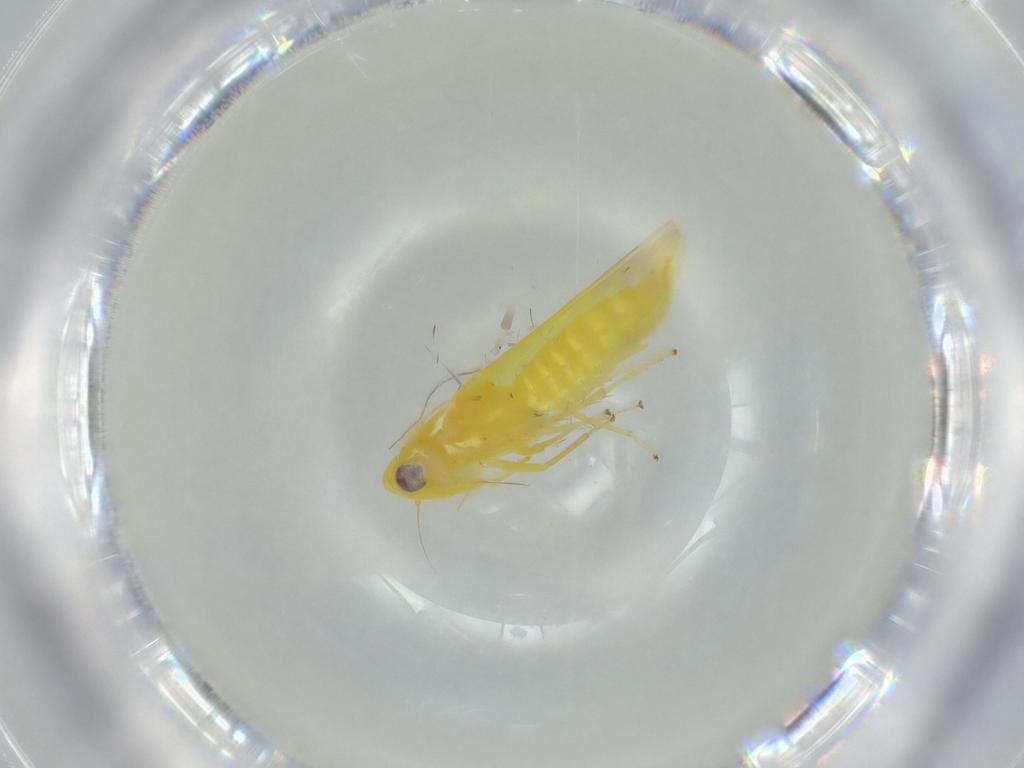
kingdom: Animalia
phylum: Arthropoda
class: Insecta
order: Hemiptera
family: Cicadellidae
